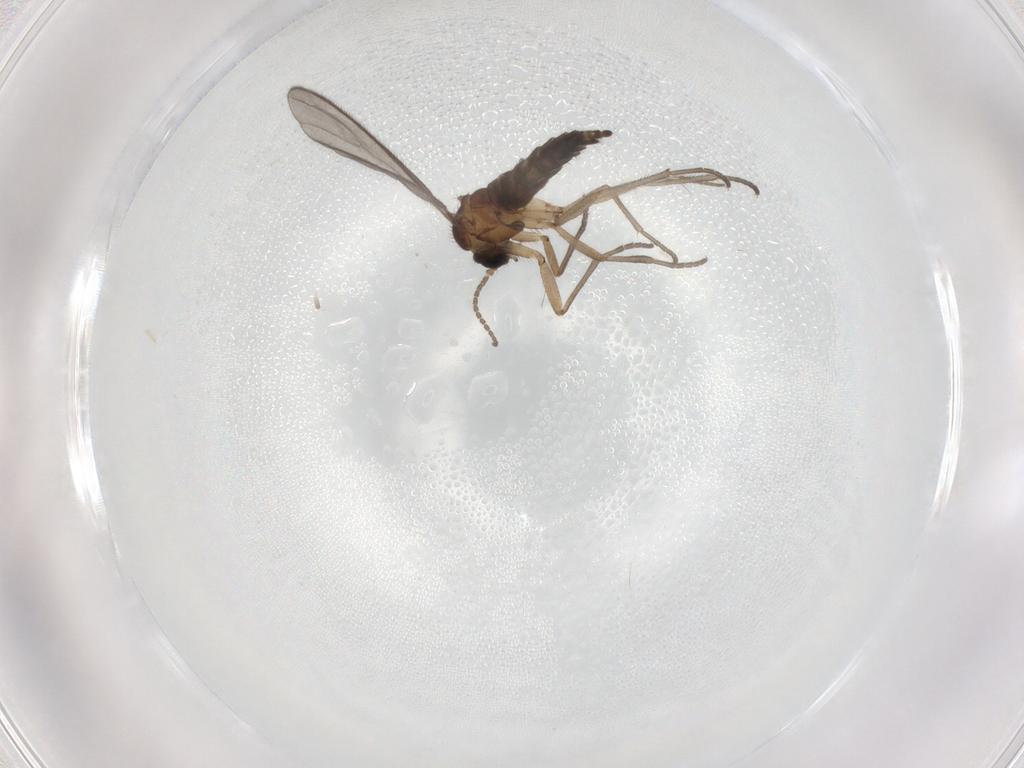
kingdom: Animalia
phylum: Arthropoda
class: Insecta
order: Diptera
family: Sciaridae
